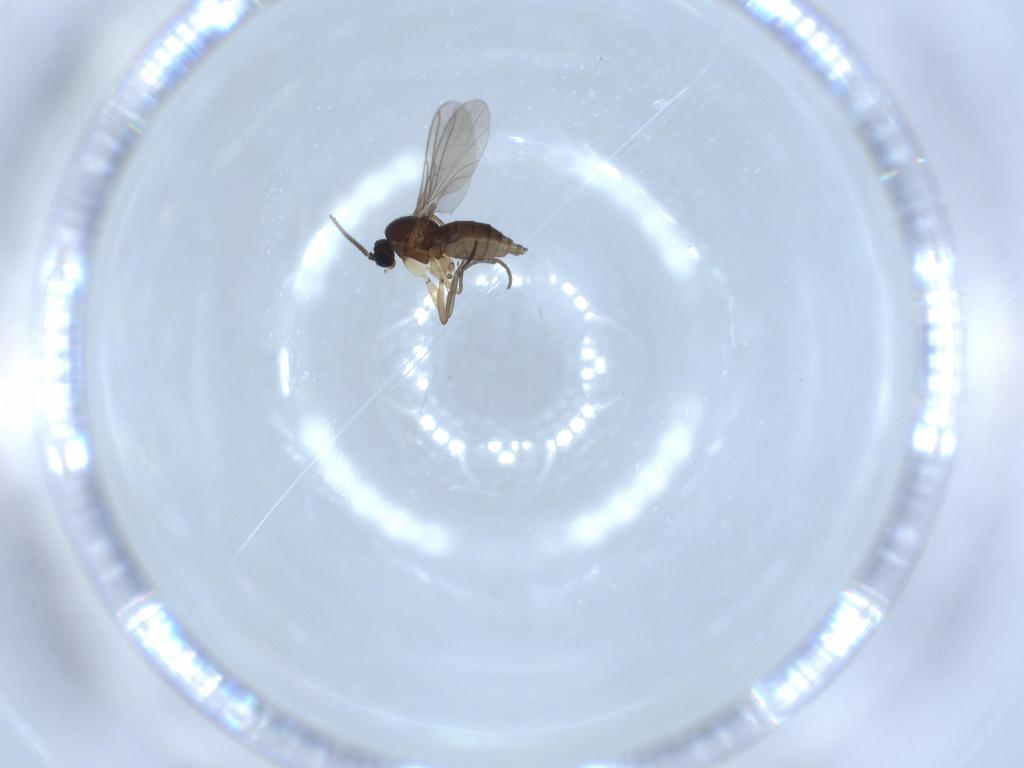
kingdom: Animalia
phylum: Arthropoda
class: Insecta
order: Diptera
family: Sciaridae
